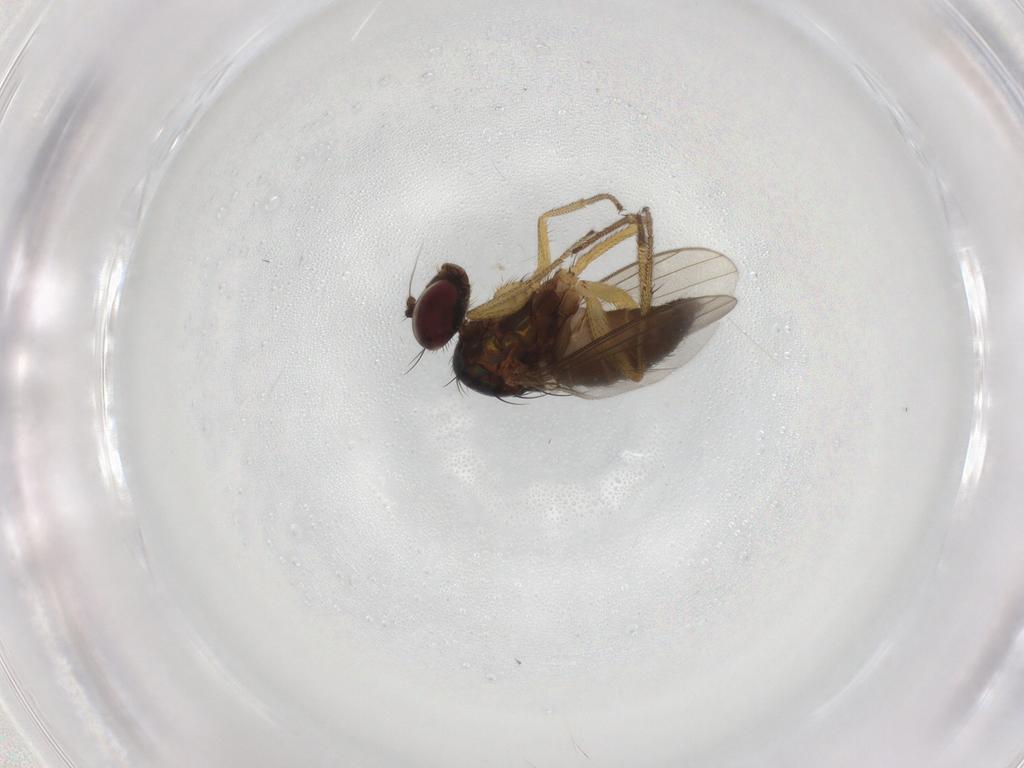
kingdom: Animalia
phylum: Arthropoda
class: Insecta
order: Diptera
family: Dolichopodidae
